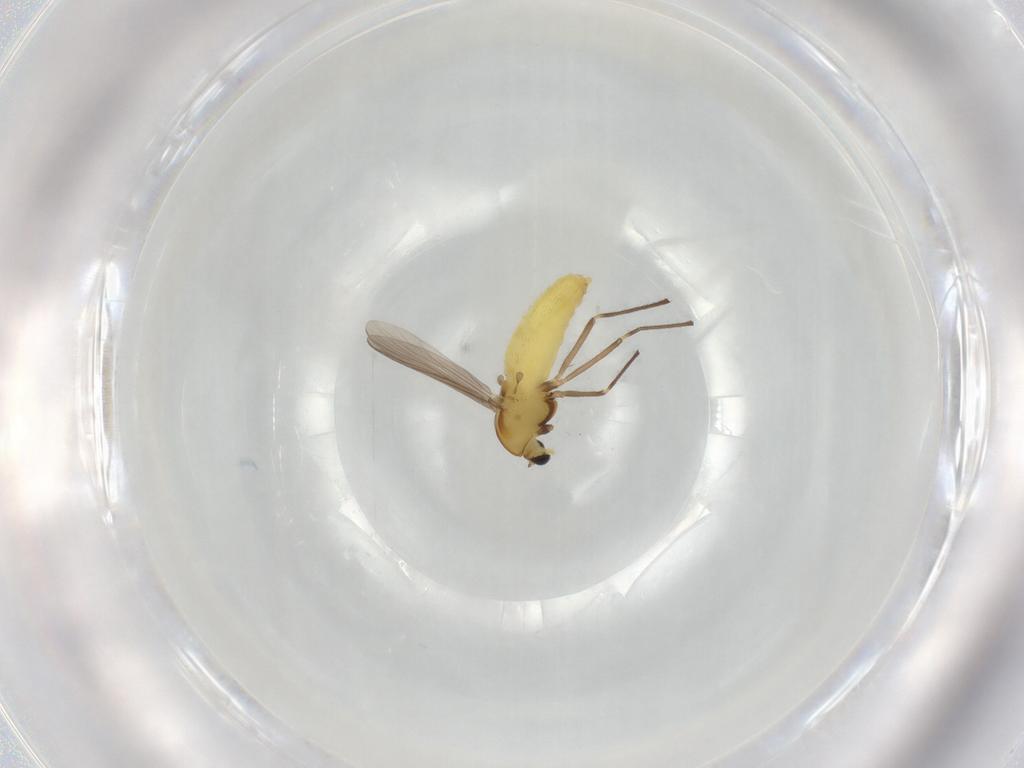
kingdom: Animalia
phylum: Arthropoda
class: Insecta
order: Diptera
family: Chironomidae
